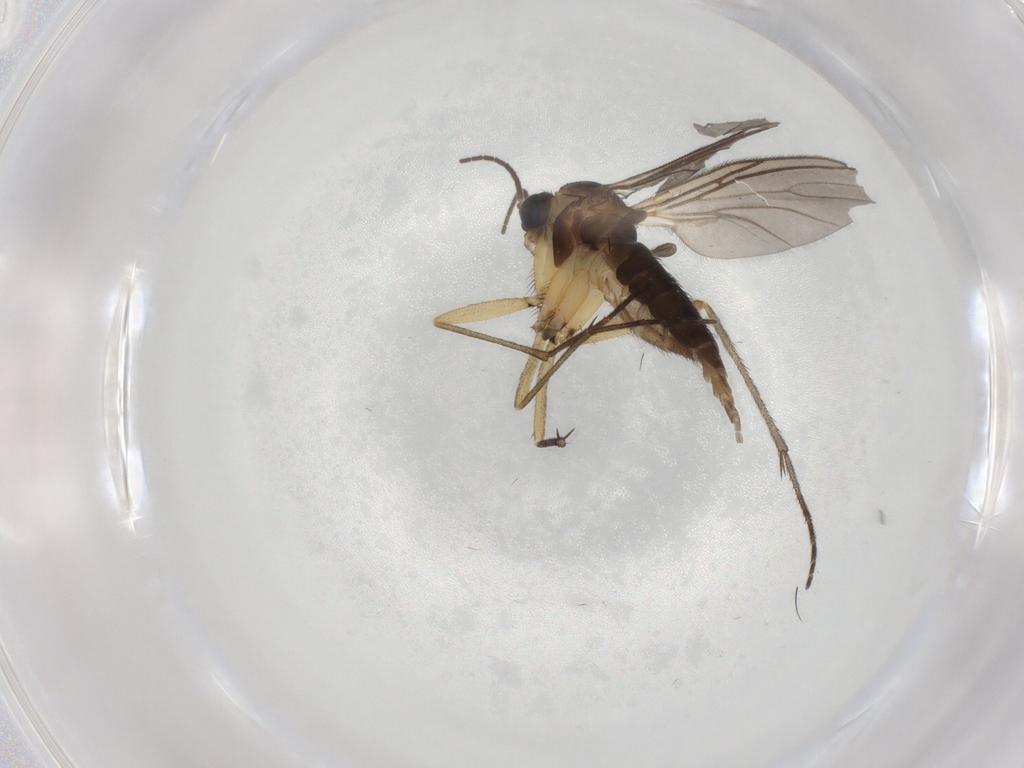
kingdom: Animalia
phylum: Arthropoda
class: Insecta
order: Diptera
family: Sciaridae
